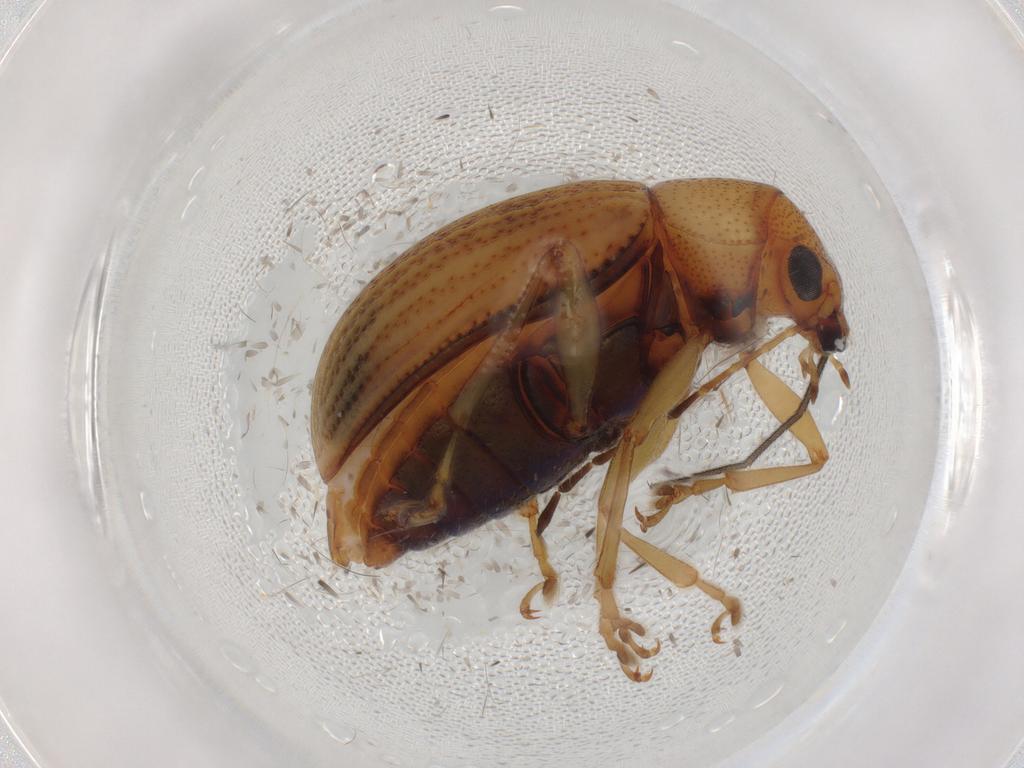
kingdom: Animalia
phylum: Arthropoda
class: Insecta
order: Coleoptera
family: Chrysomelidae
